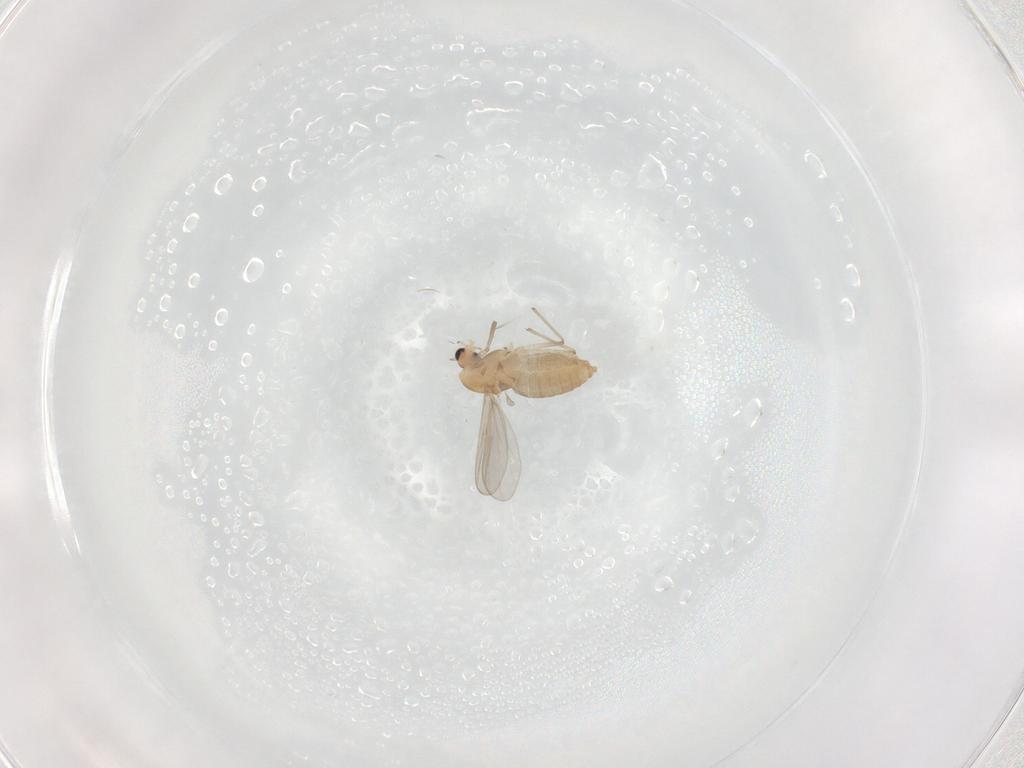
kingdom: Animalia
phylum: Arthropoda
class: Insecta
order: Diptera
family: Chironomidae
